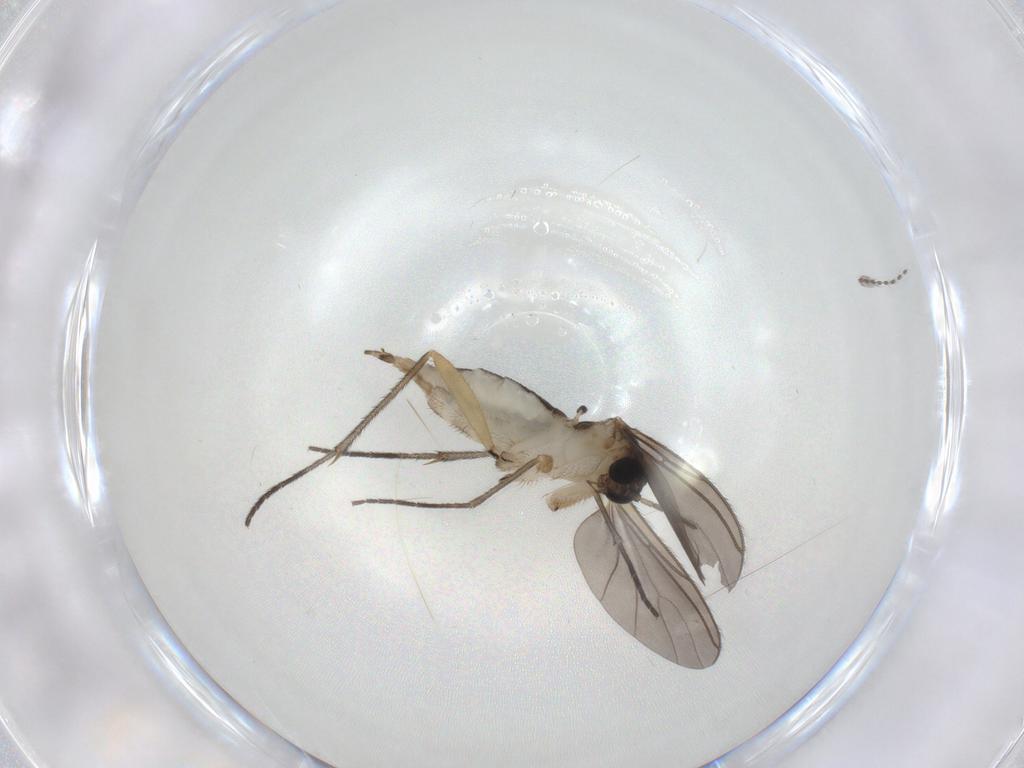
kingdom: Animalia
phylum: Arthropoda
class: Insecta
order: Diptera
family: Sciaridae
